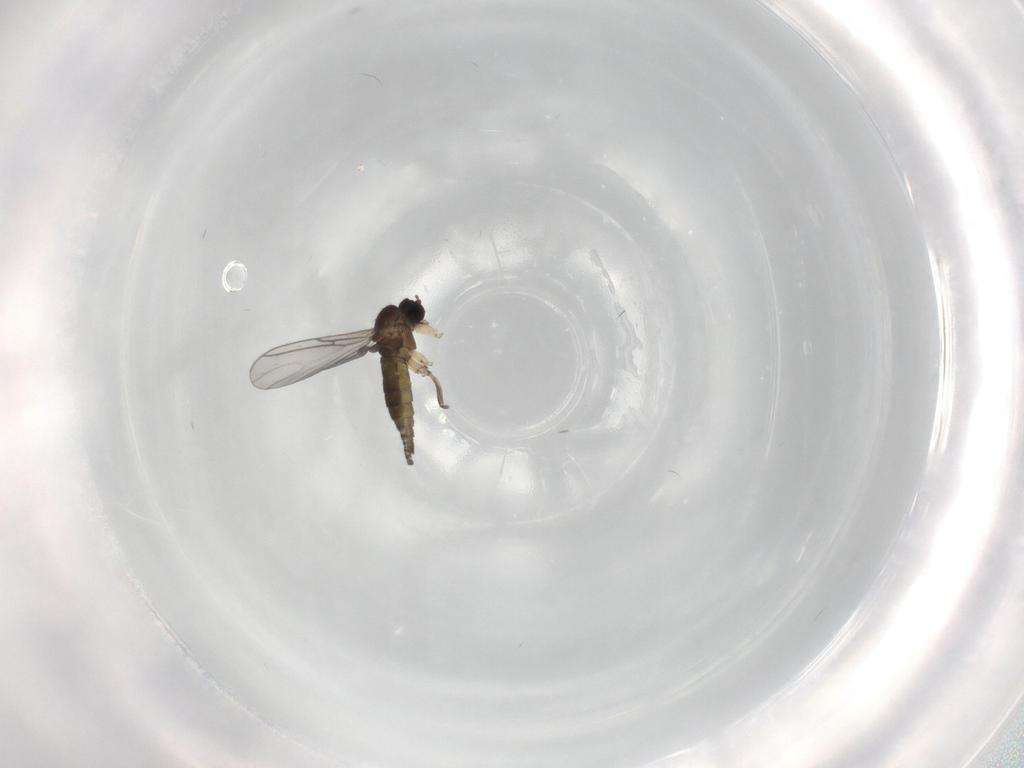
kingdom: Animalia
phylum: Arthropoda
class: Insecta
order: Diptera
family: Sciaridae
